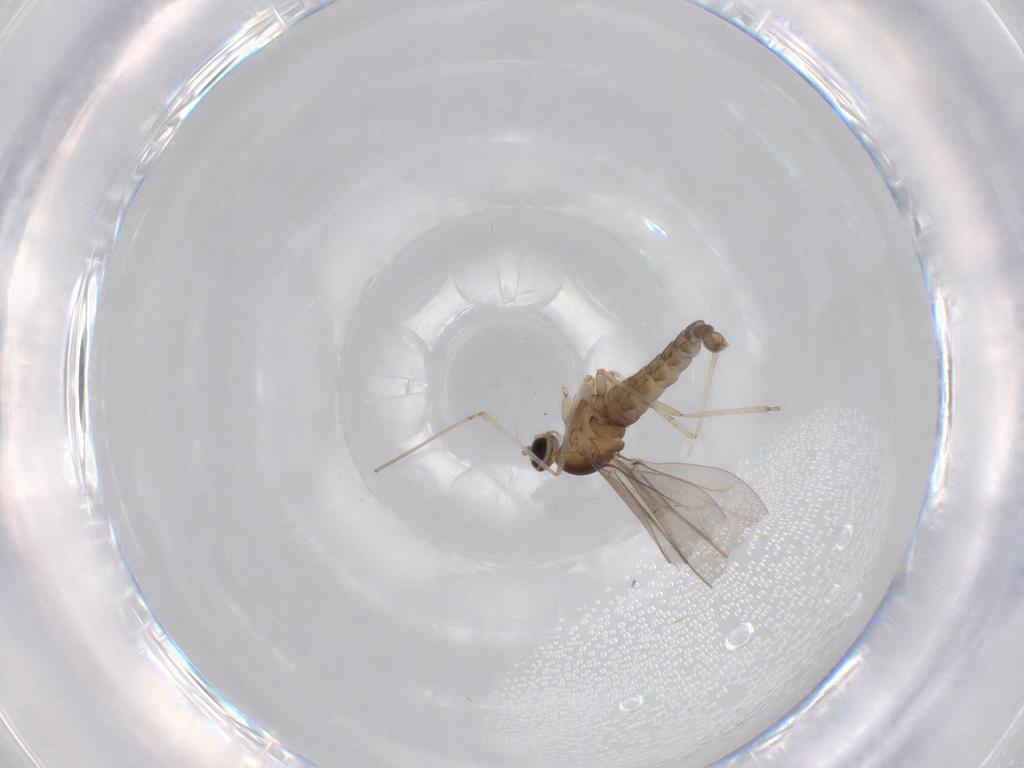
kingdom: Animalia
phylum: Arthropoda
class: Insecta
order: Diptera
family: Cecidomyiidae
